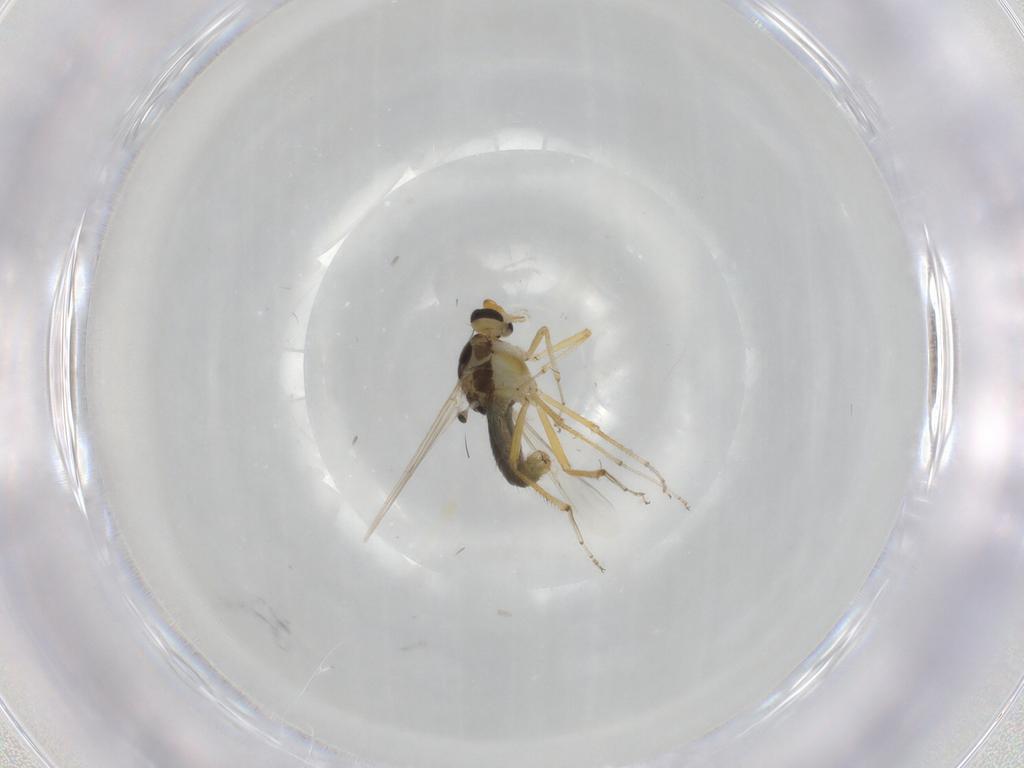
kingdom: Animalia
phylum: Arthropoda
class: Insecta
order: Diptera
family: Ceratopogonidae
